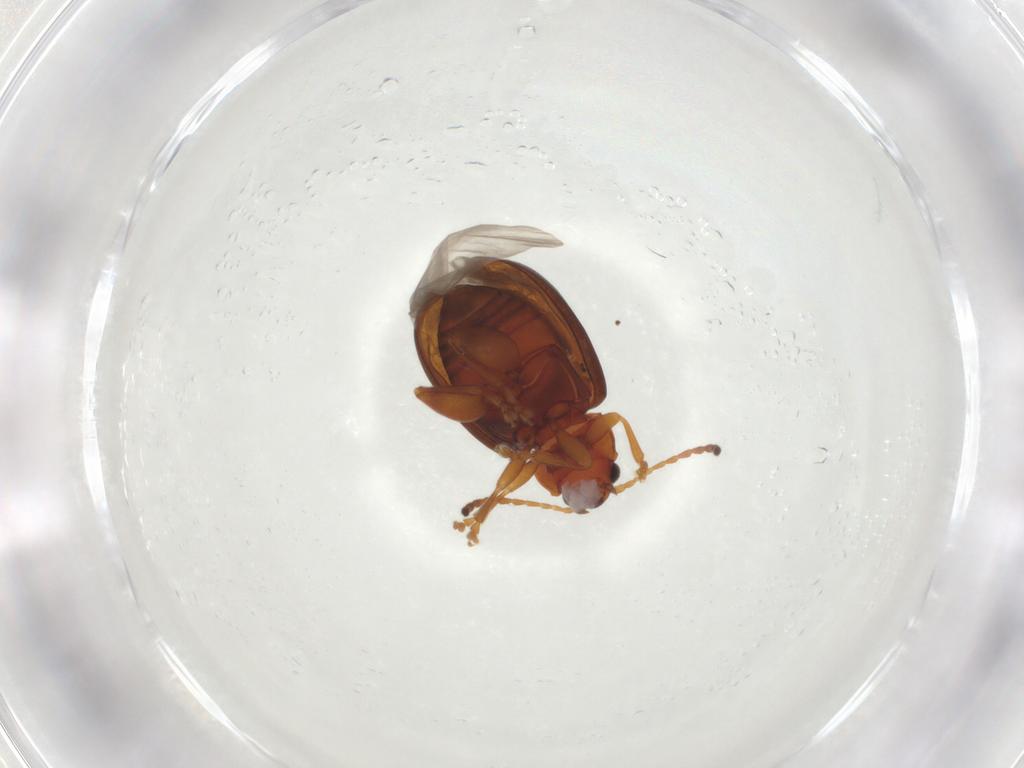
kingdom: Animalia
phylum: Arthropoda
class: Insecta
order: Coleoptera
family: Chrysomelidae
